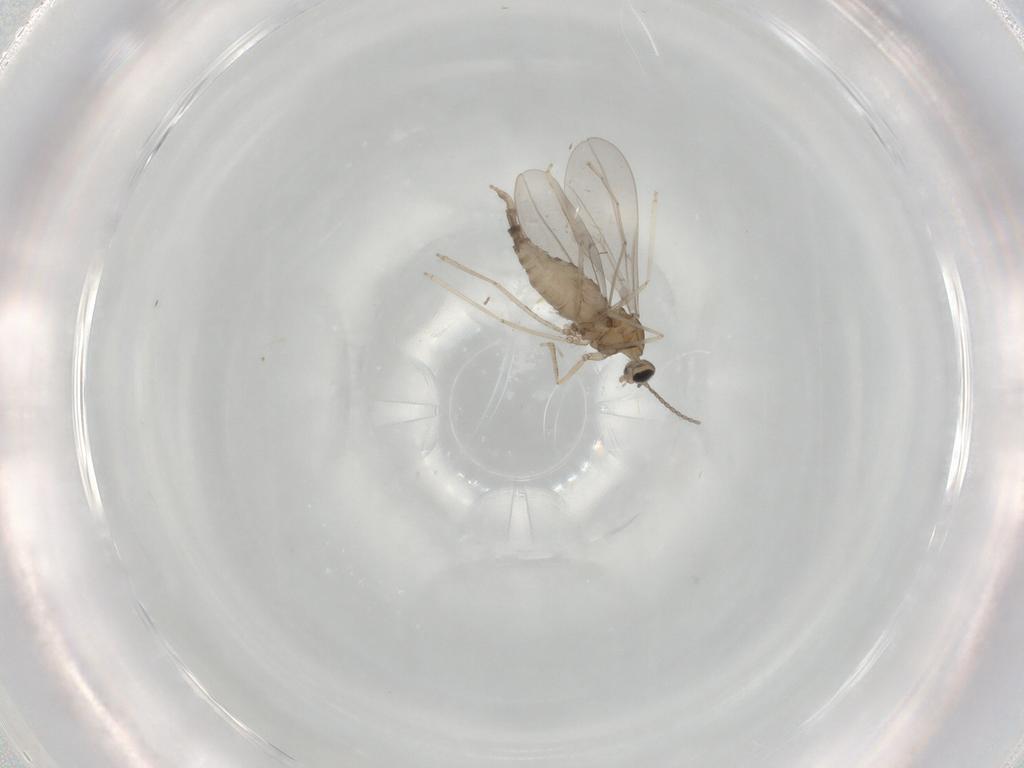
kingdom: Animalia
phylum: Arthropoda
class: Insecta
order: Diptera
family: Cecidomyiidae
